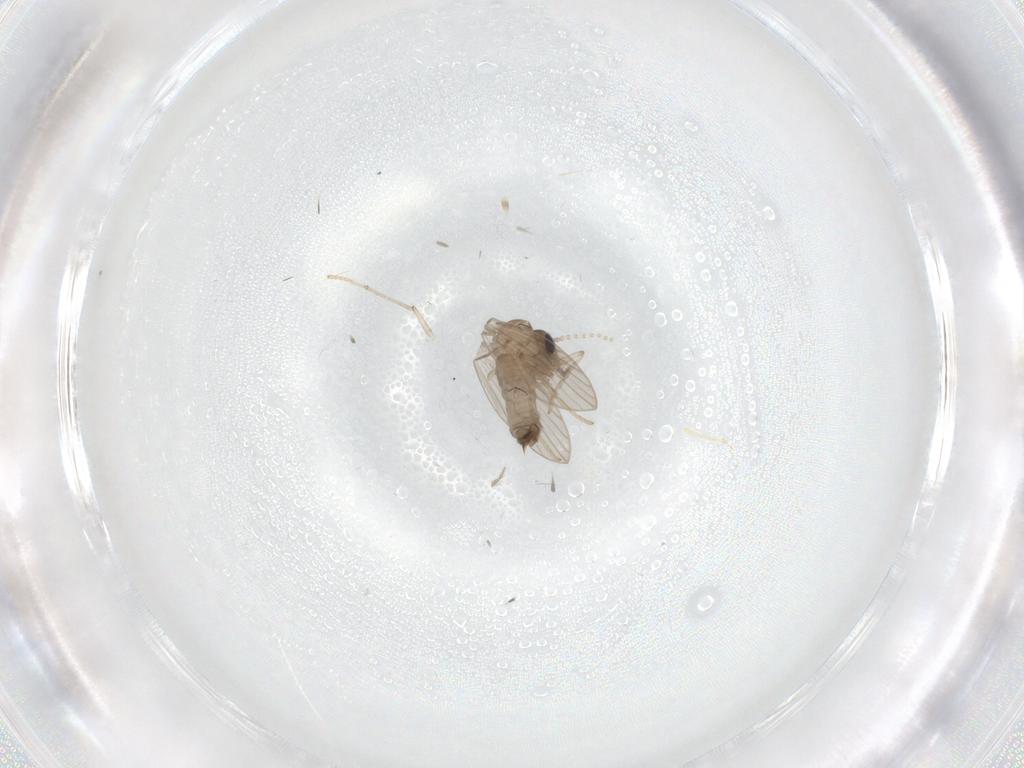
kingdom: Animalia
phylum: Arthropoda
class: Insecta
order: Diptera
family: Psychodidae
